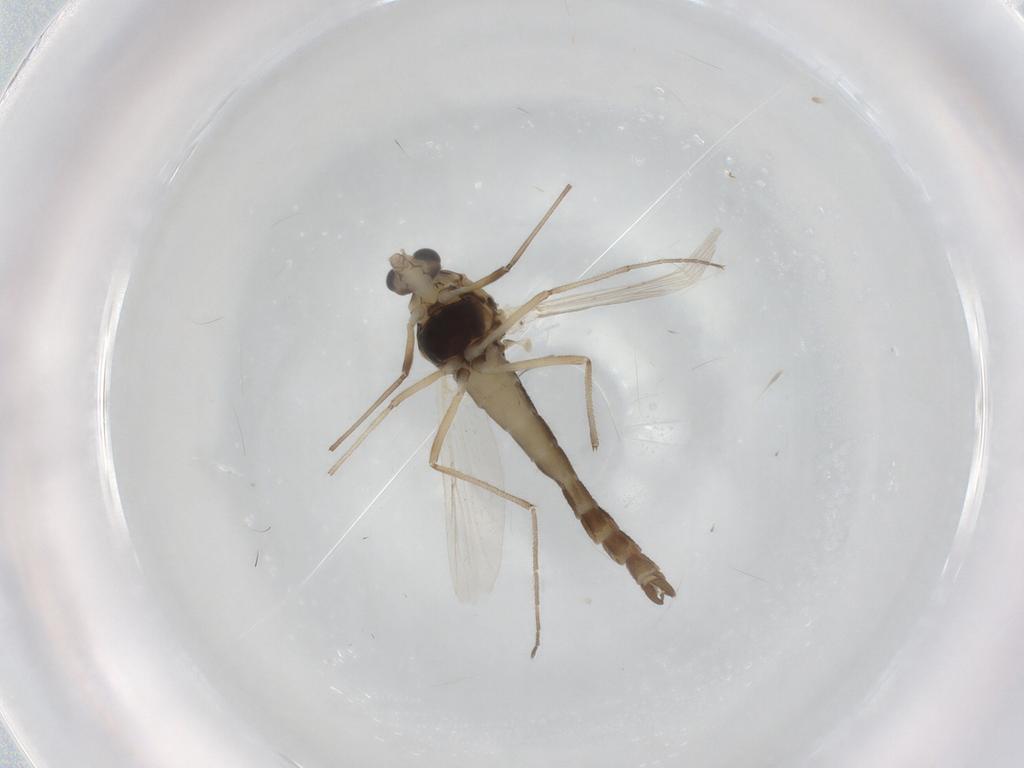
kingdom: Animalia
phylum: Arthropoda
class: Insecta
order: Diptera
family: Chironomidae
